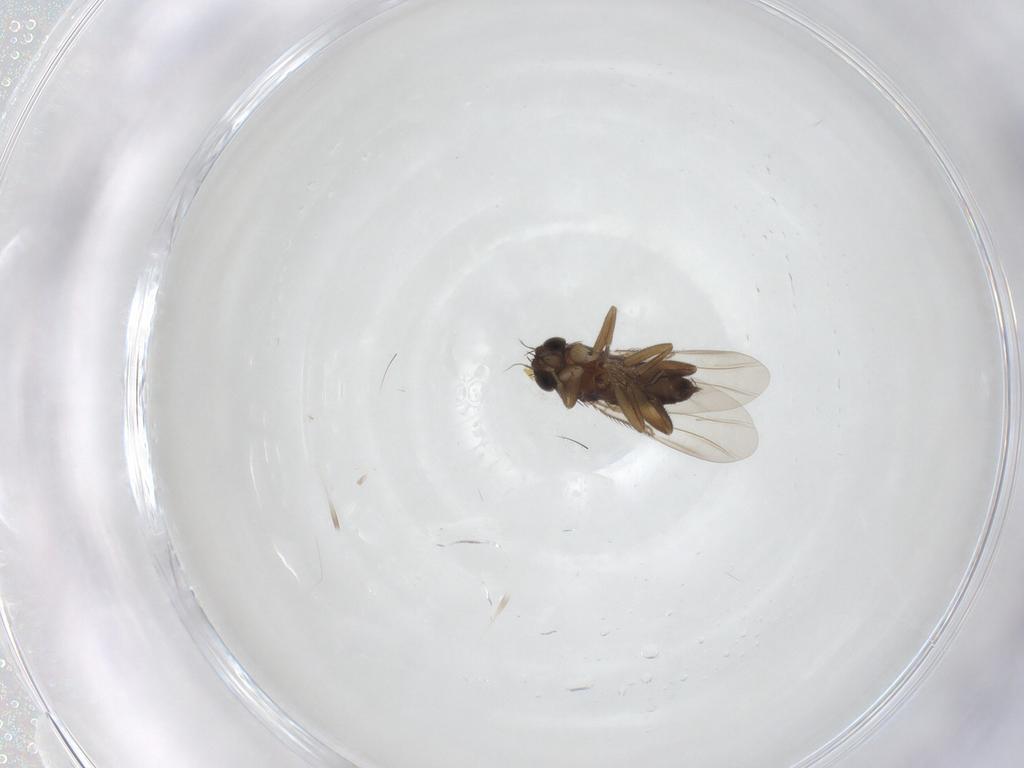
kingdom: Animalia
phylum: Arthropoda
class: Insecta
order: Diptera
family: Phoridae
